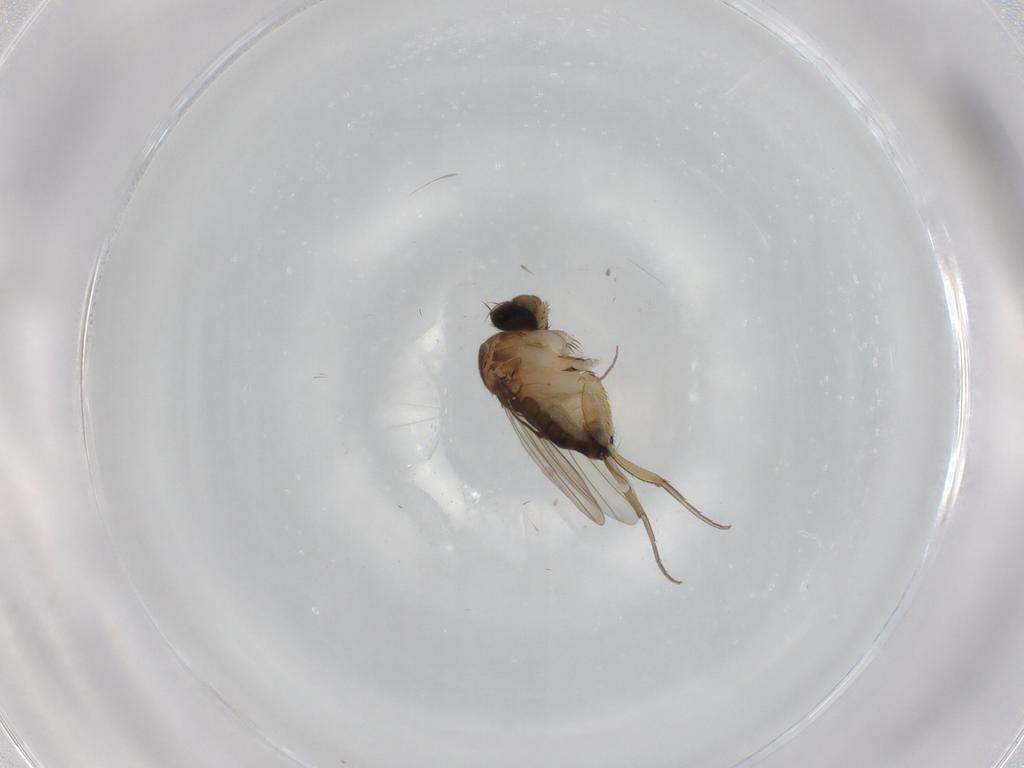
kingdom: Animalia
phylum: Arthropoda
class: Insecta
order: Diptera
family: Phoridae
